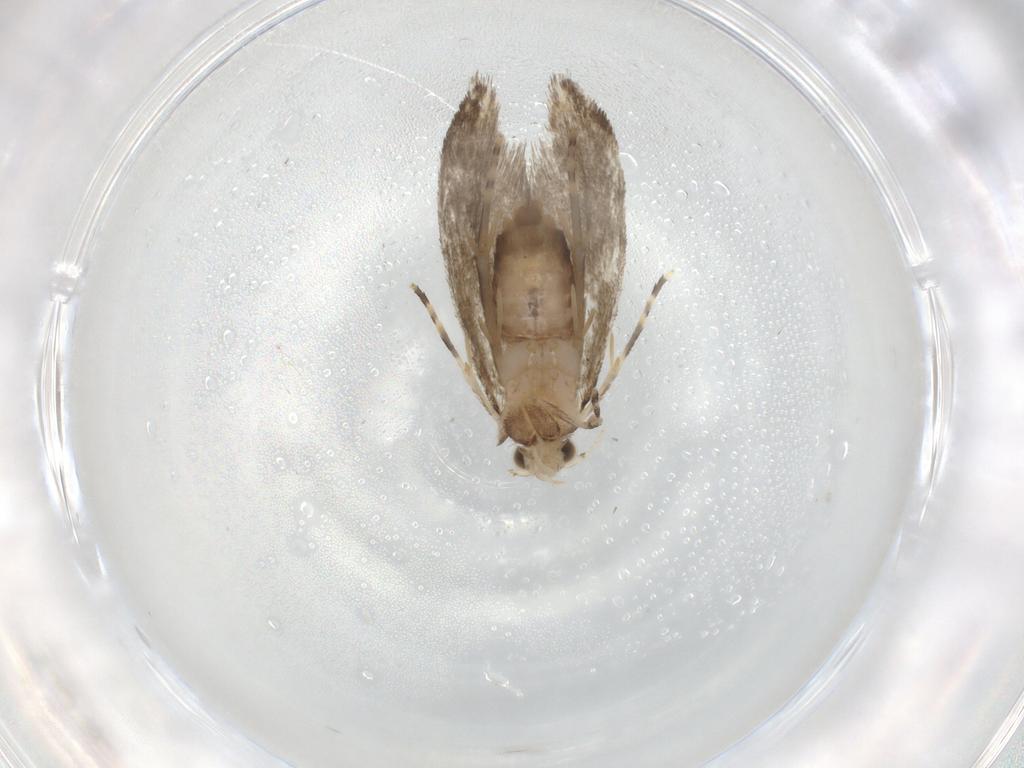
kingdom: Animalia
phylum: Arthropoda
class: Insecta
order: Lepidoptera
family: Tineidae
